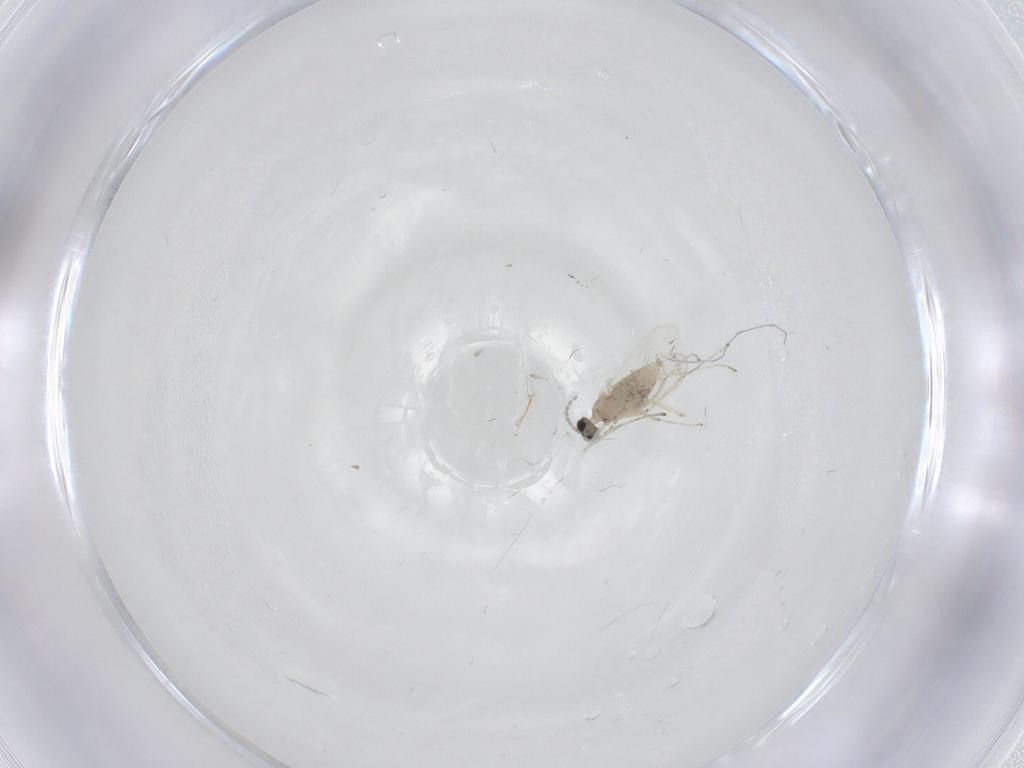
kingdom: Animalia
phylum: Arthropoda
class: Insecta
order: Diptera
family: Cecidomyiidae
